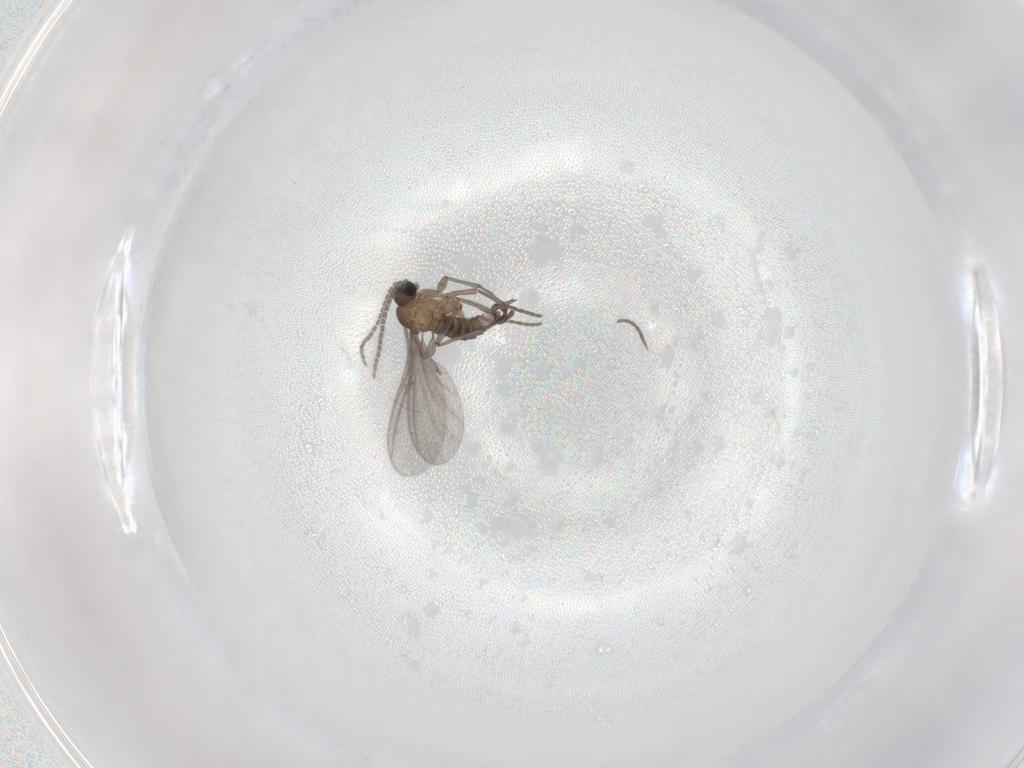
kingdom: Animalia
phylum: Arthropoda
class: Insecta
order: Diptera
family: Sciaridae
